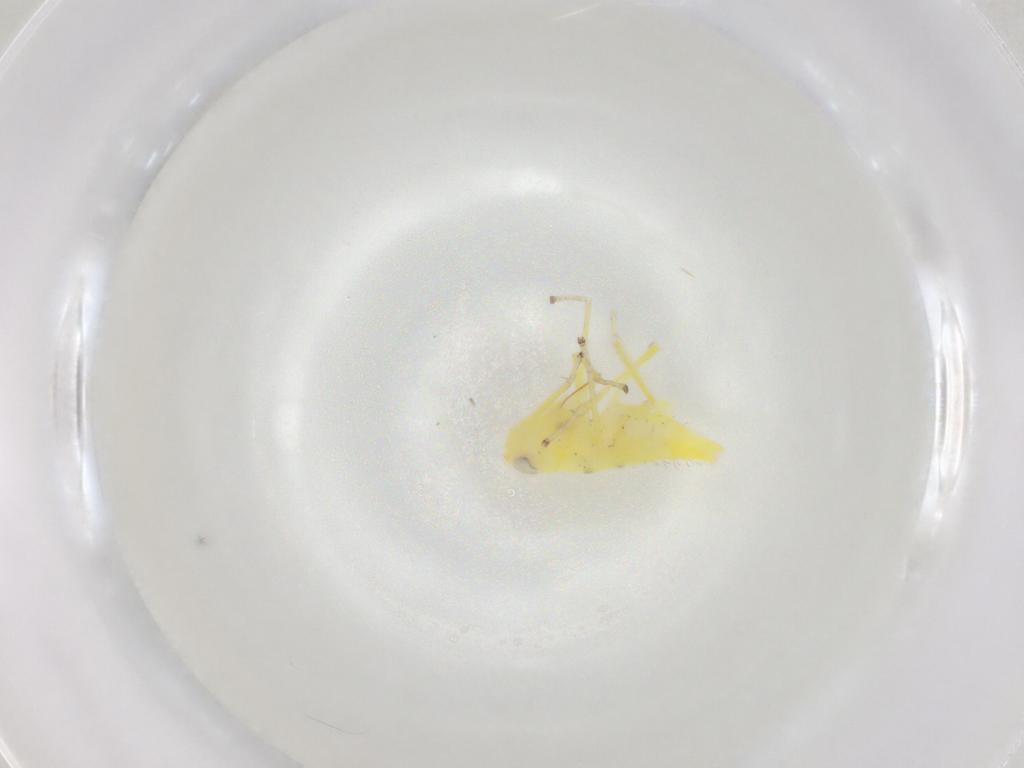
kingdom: Animalia
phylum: Arthropoda
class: Insecta
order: Hemiptera
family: Cicadellidae
